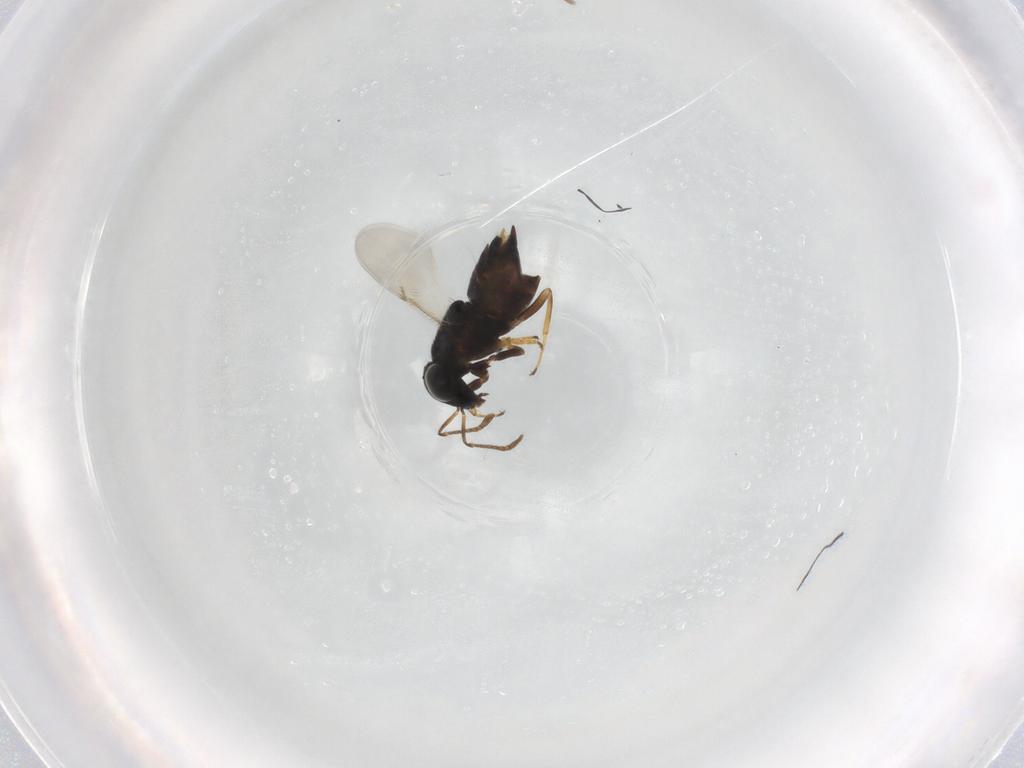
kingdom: Animalia
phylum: Arthropoda
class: Insecta
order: Hymenoptera
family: Encyrtidae
